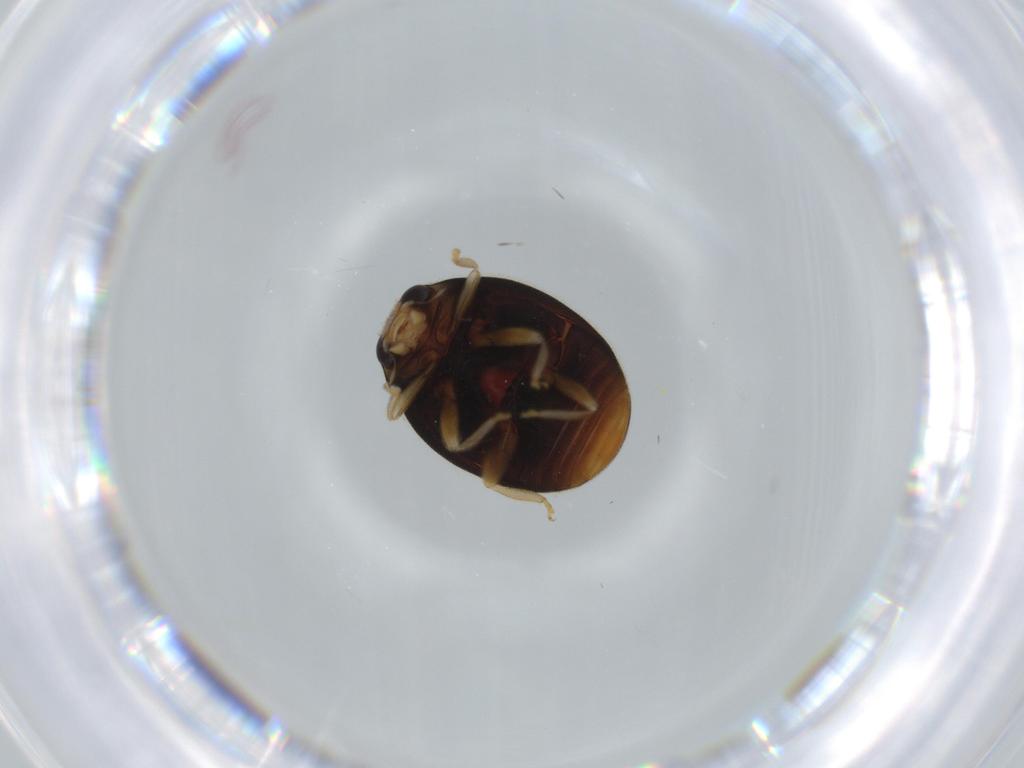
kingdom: Animalia
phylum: Arthropoda
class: Insecta
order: Coleoptera
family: Coccinellidae
